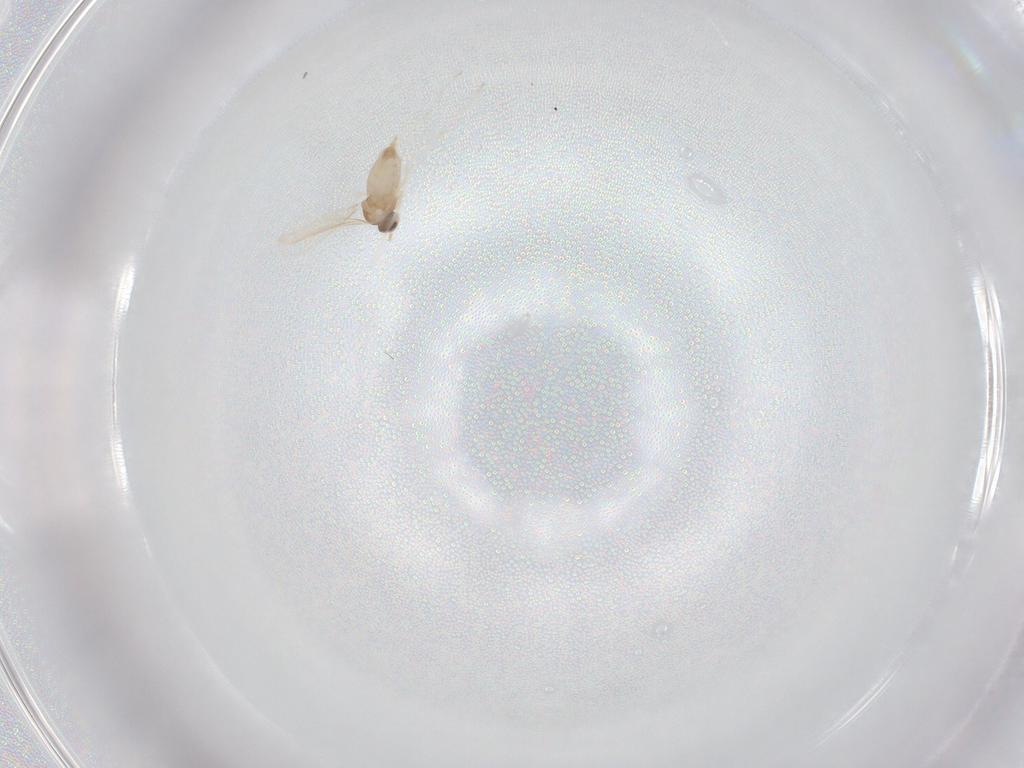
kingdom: Animalia
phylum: Arthropoda
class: Insecta
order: Diptera
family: Cecidomyiidae
